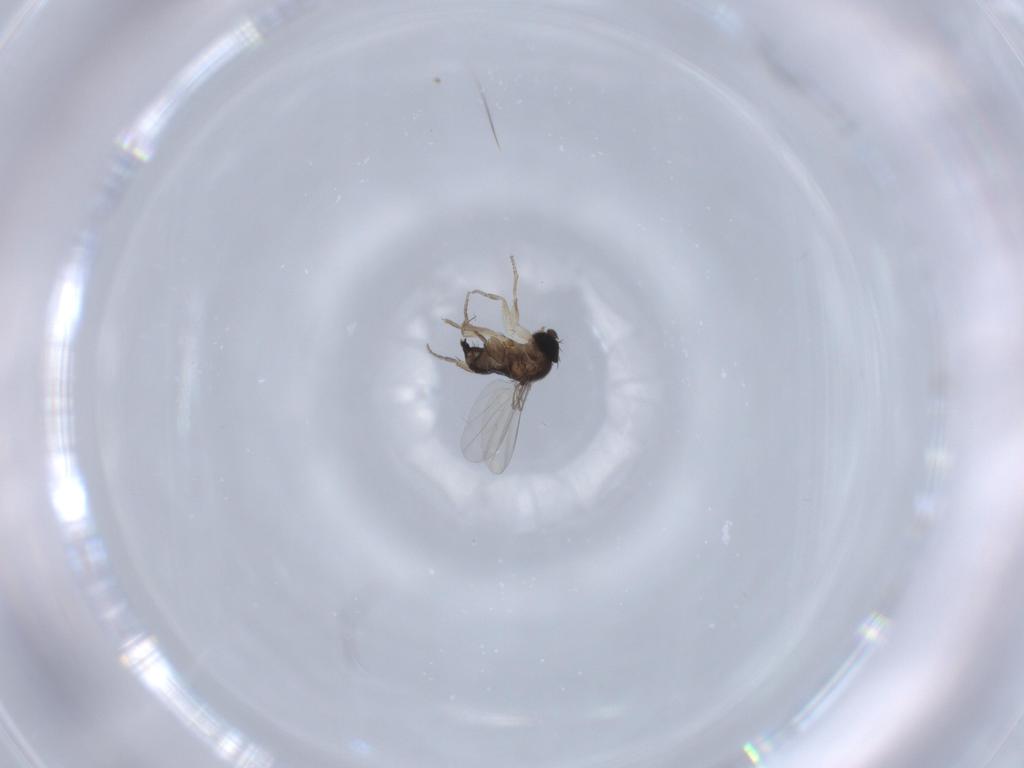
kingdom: Animalia
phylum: Arthropoda
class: Insecta
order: Diptera
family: Phoridae
